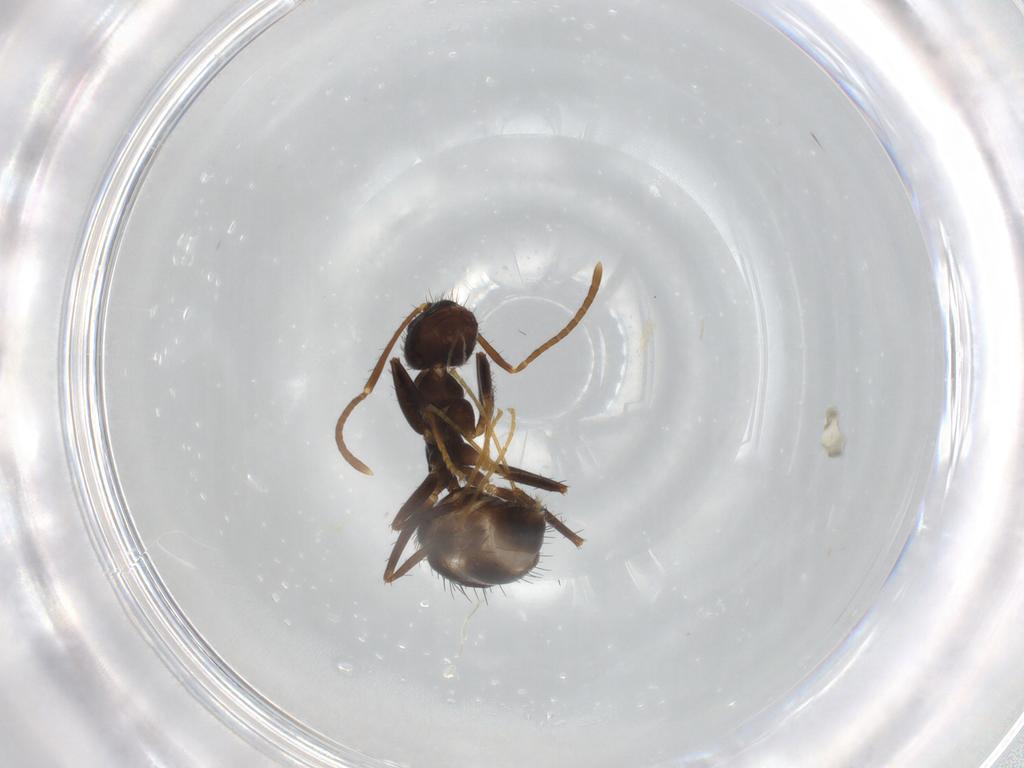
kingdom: Animalia
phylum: Arthropoda
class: Insecta
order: Hymenoptera
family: Formicidae
